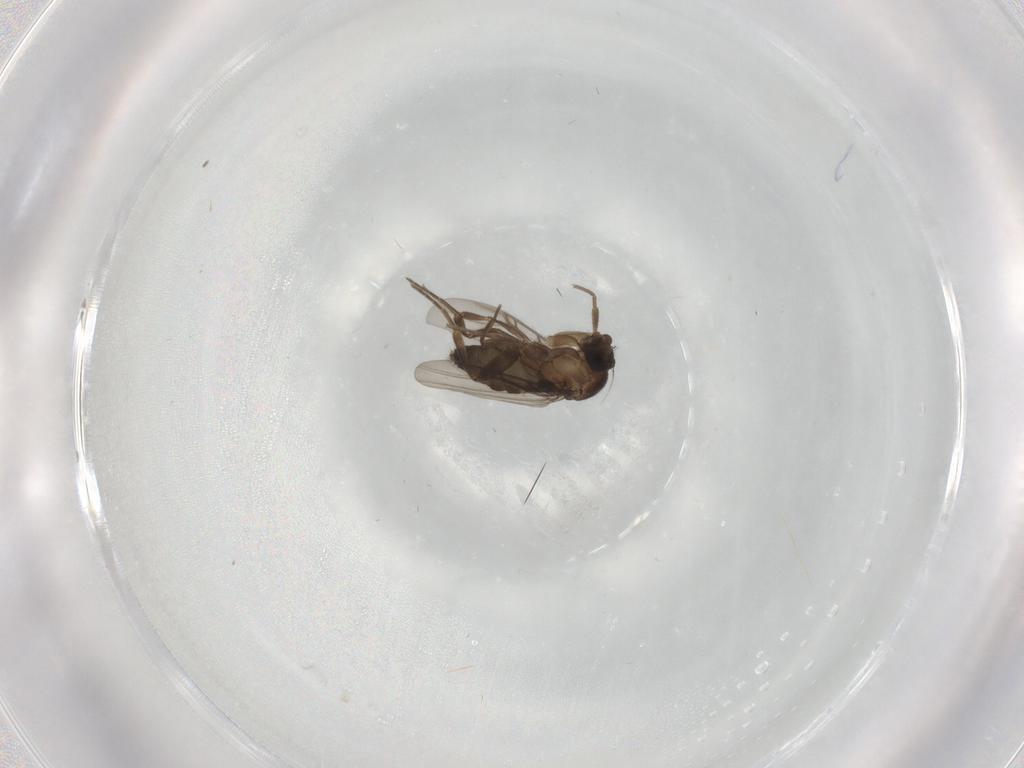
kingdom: Animalia
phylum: Arthropoda
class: Insecta
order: Diptera
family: Phoridae
